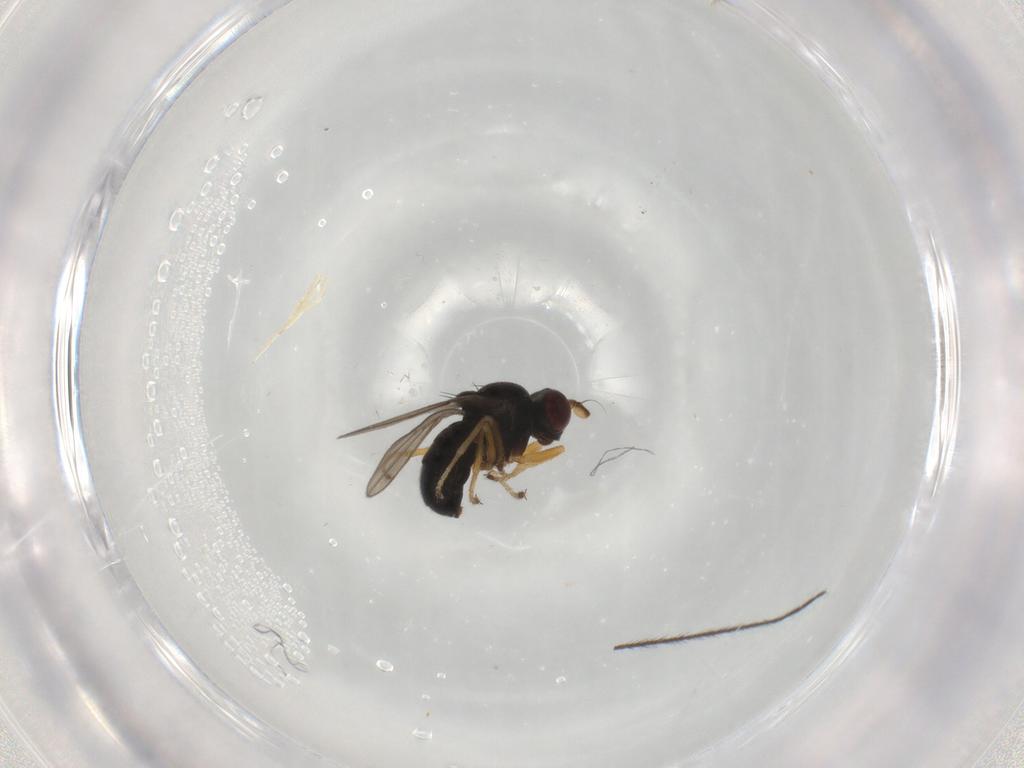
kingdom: Animalia
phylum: Arthropoda
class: Insecta
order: Diptera
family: Ephydridae
